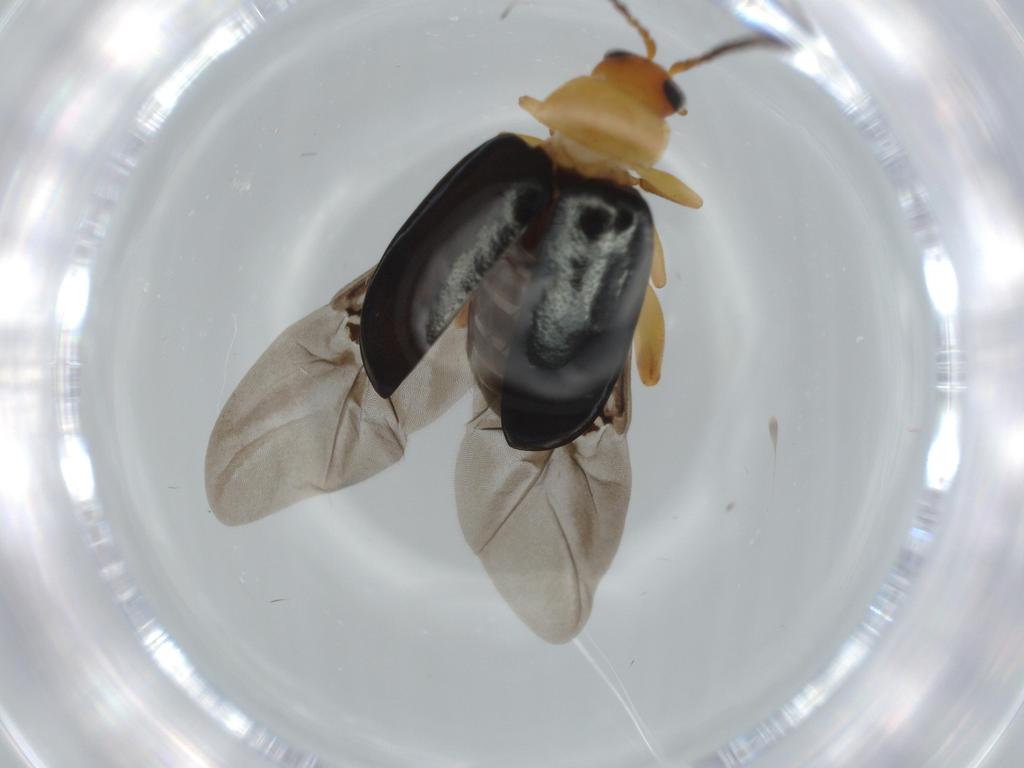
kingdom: Animalia
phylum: Arthropoda
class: Insecta
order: Coleoptera
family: Chrysomelidae
